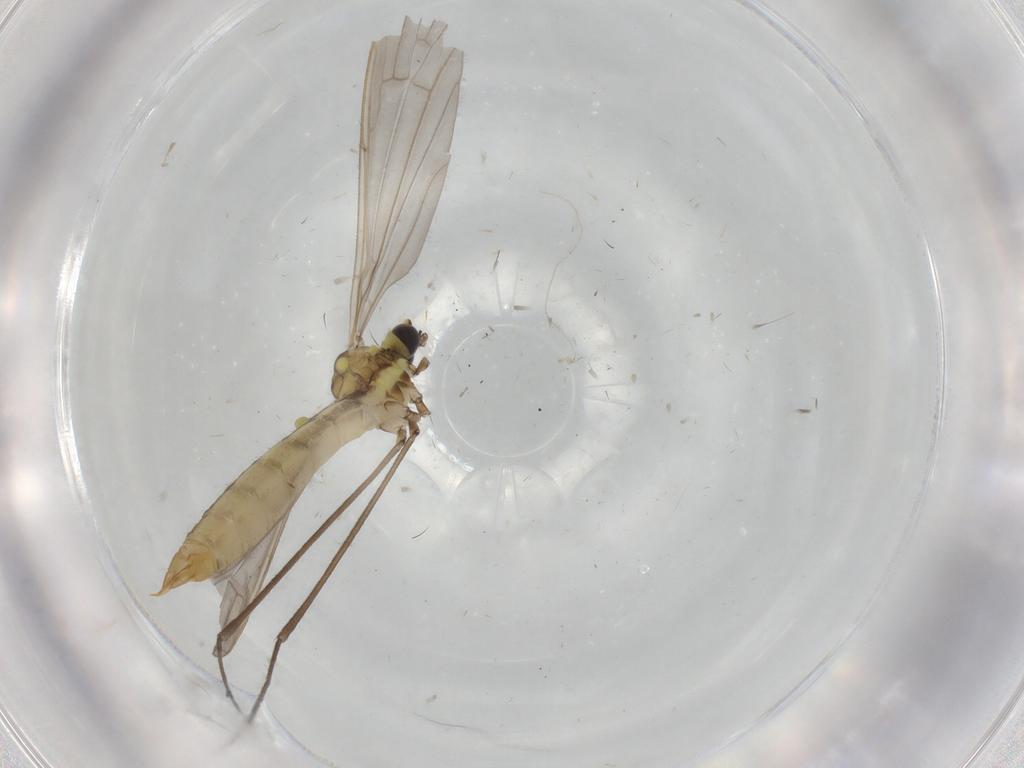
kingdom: Animalia
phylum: Arthropoda
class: Insecta
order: Diptera
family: Limoniidae
